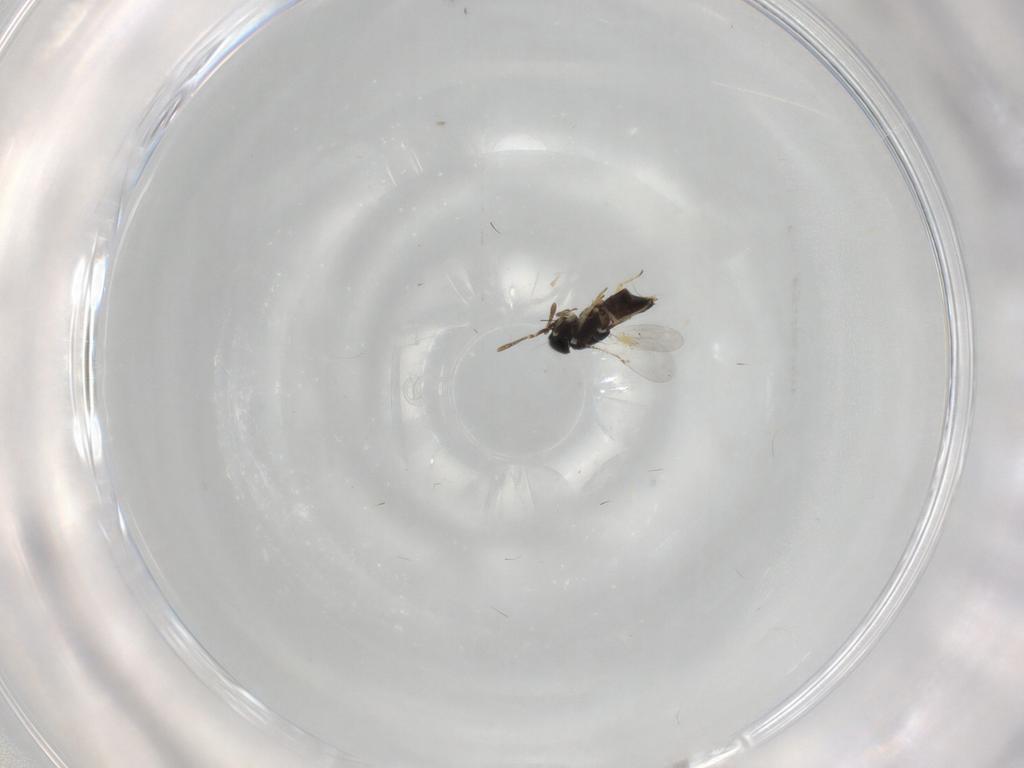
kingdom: Animalia
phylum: Arthropoda
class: Insecta
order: Hymenoptera
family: Encyrtidae
